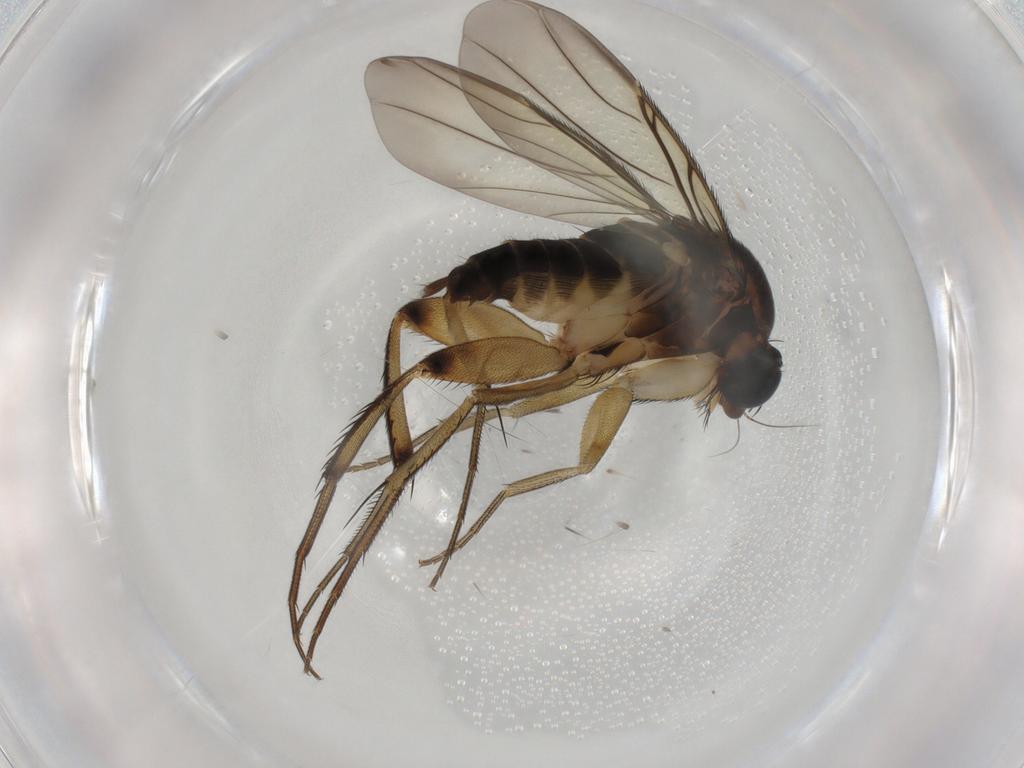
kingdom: Animalia
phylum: Arthropoda
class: Insecta
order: Diptera
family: Phoridae
